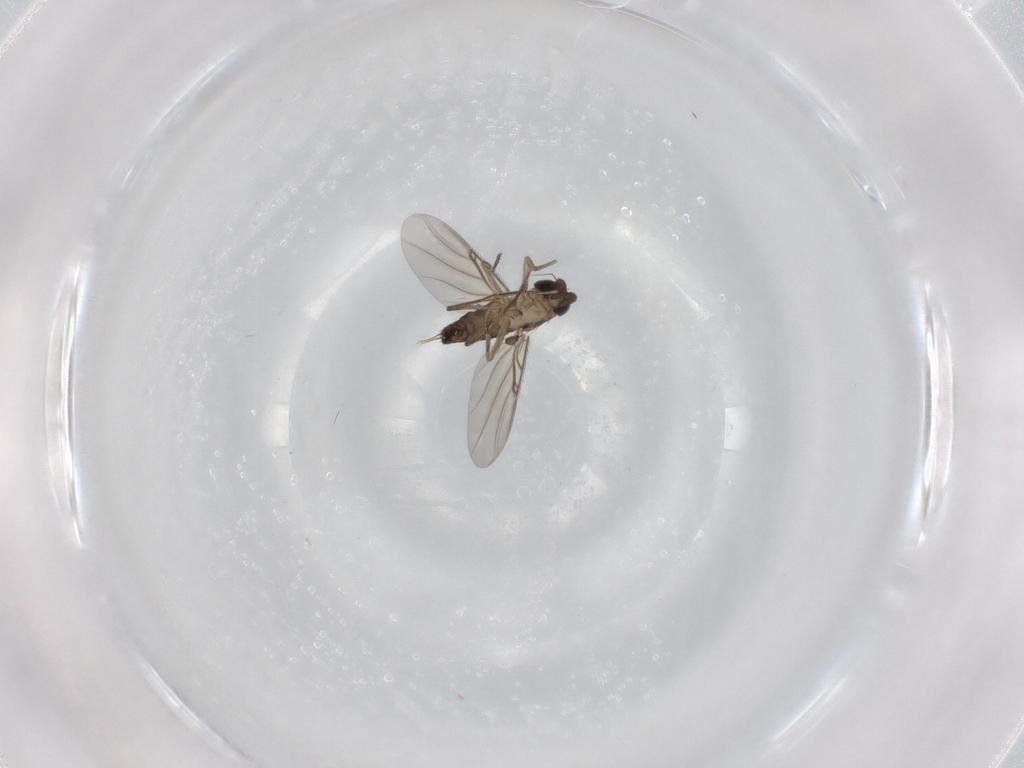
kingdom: Animalia
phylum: Arthropoda
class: Insecta
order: Diptera
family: Phoridae
